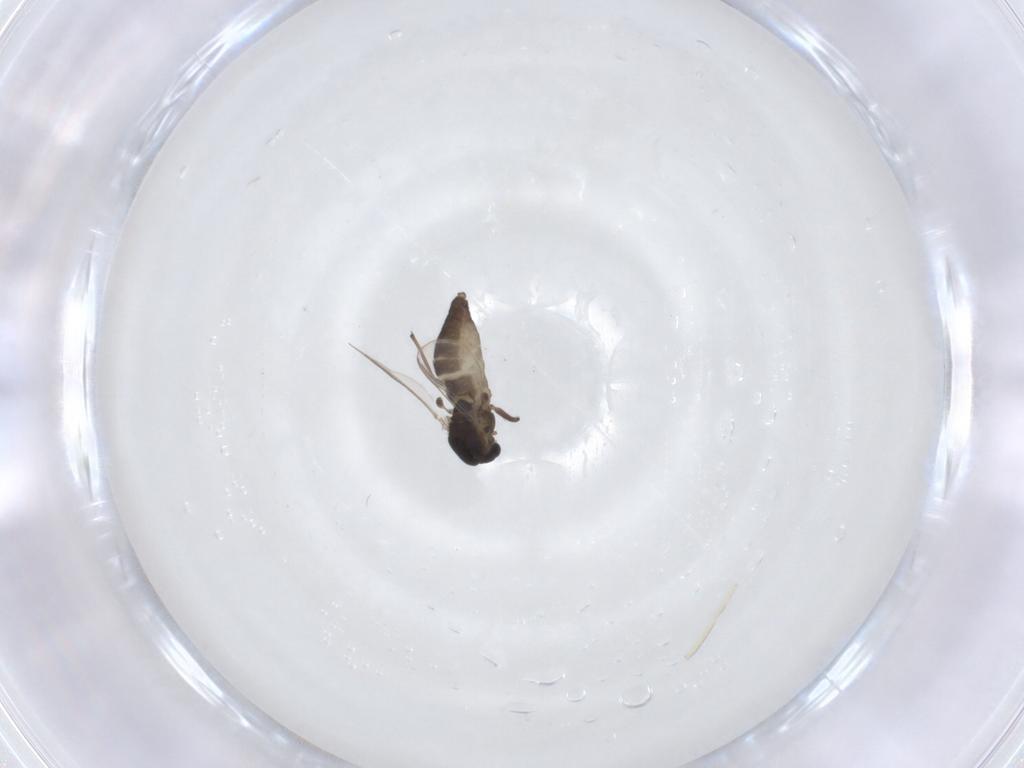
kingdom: Animalia
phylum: Arthropoda
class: Insecta
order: Diptera
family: Chironomidae
